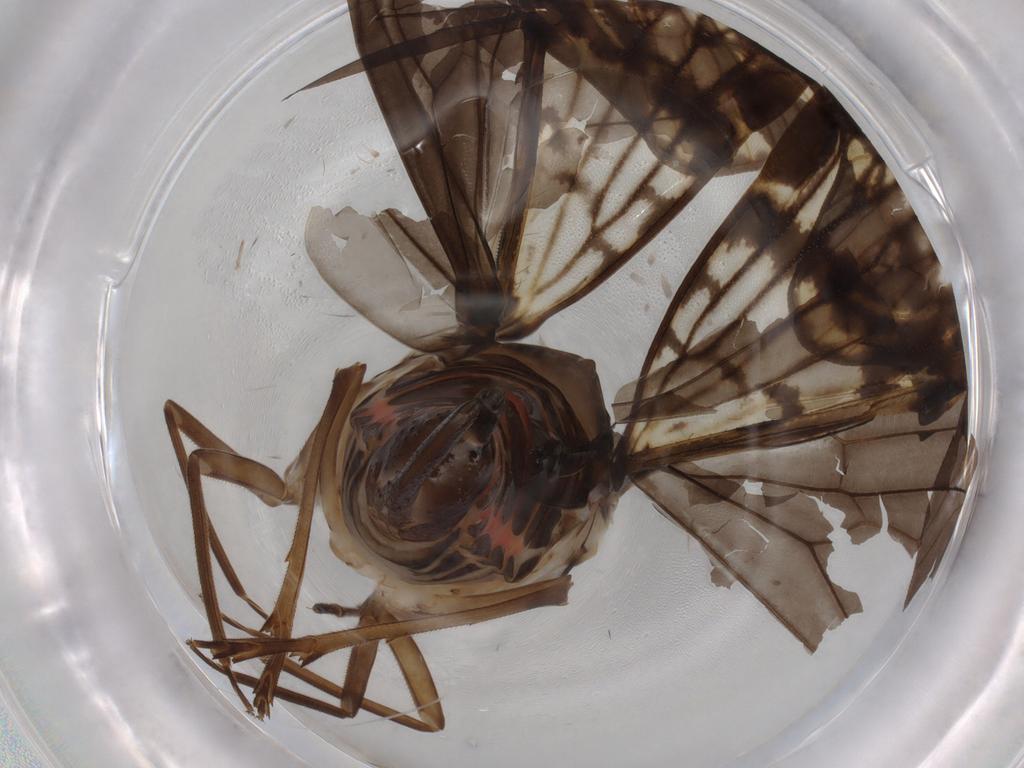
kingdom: Animalia
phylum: Arthropoda
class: Insecta
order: Hemiptera
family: Cixiidae
